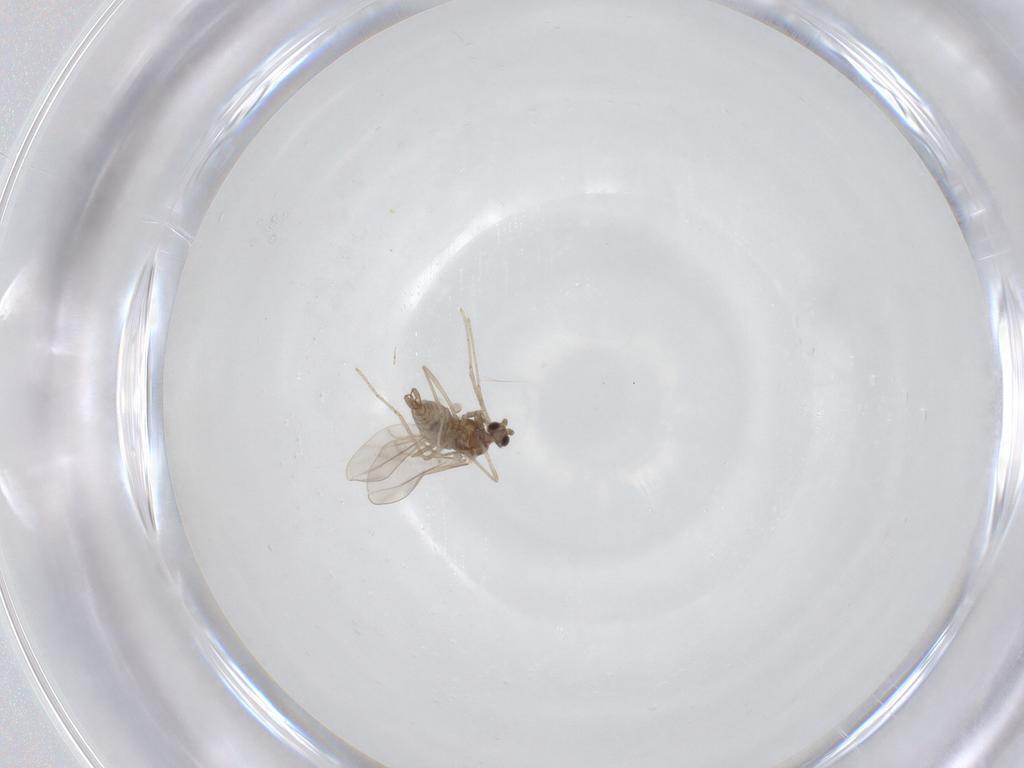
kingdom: Animalia
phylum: Arthropoda
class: Insecta
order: Diptera
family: Cecidomyiidae
